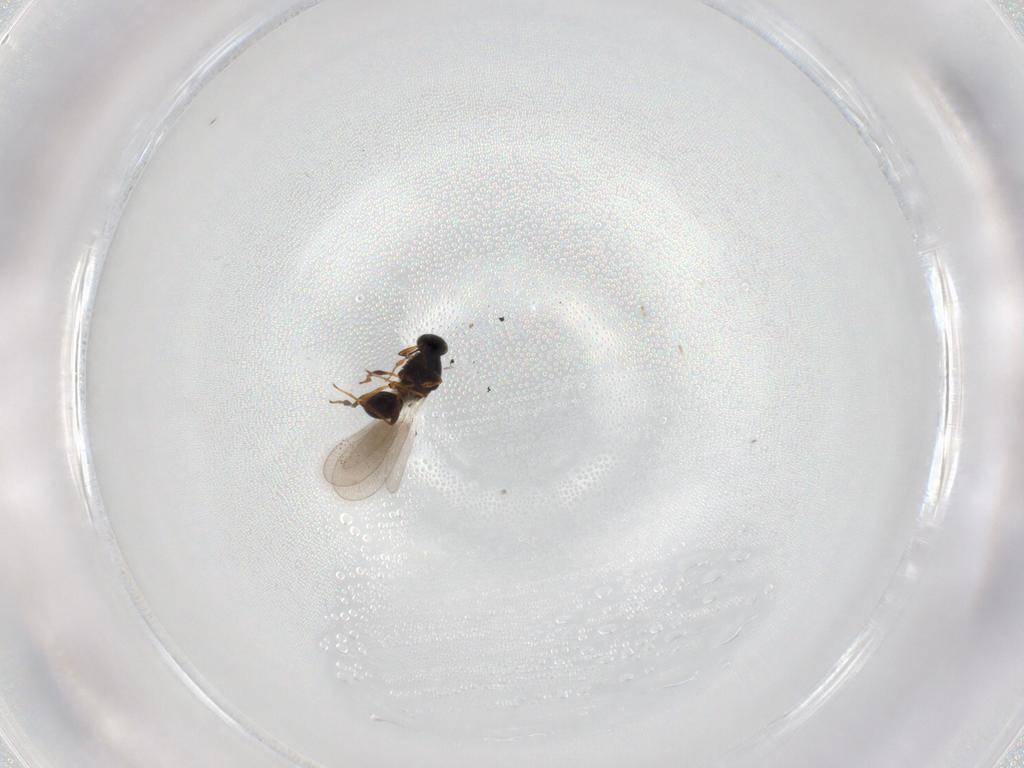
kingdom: Animalia
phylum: Arthropoda
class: Insecta
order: Hymenoptera
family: Platygastridae
